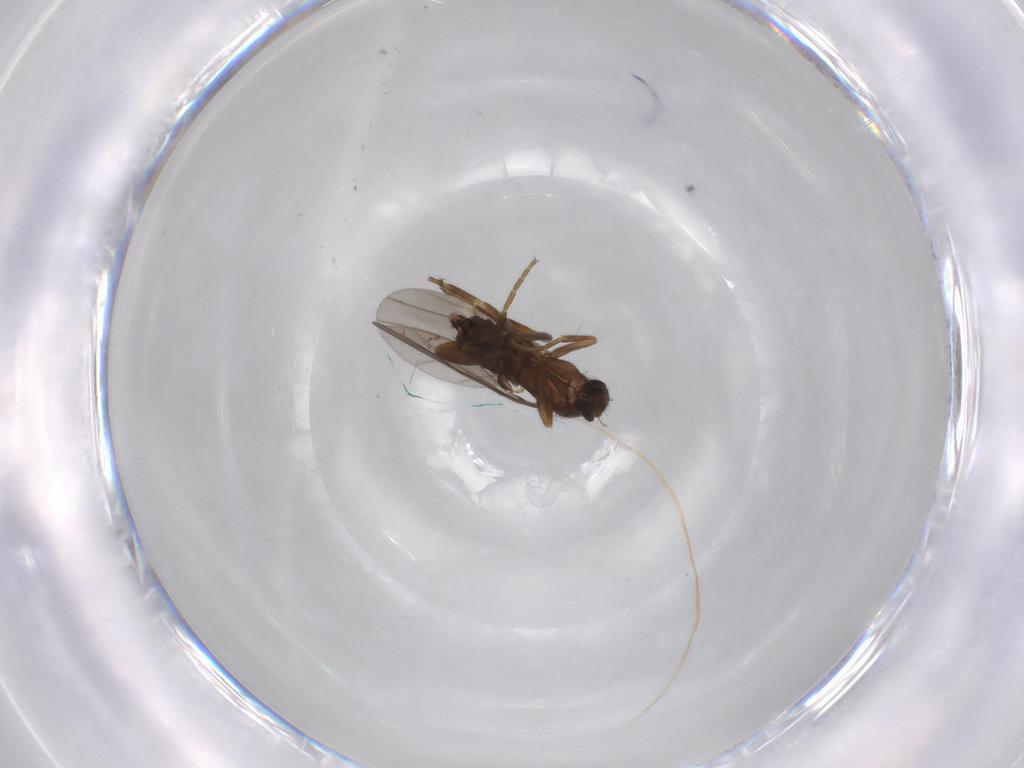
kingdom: Animalia
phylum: Arthropoda
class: Insecta
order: Diptera
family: Phoridae
